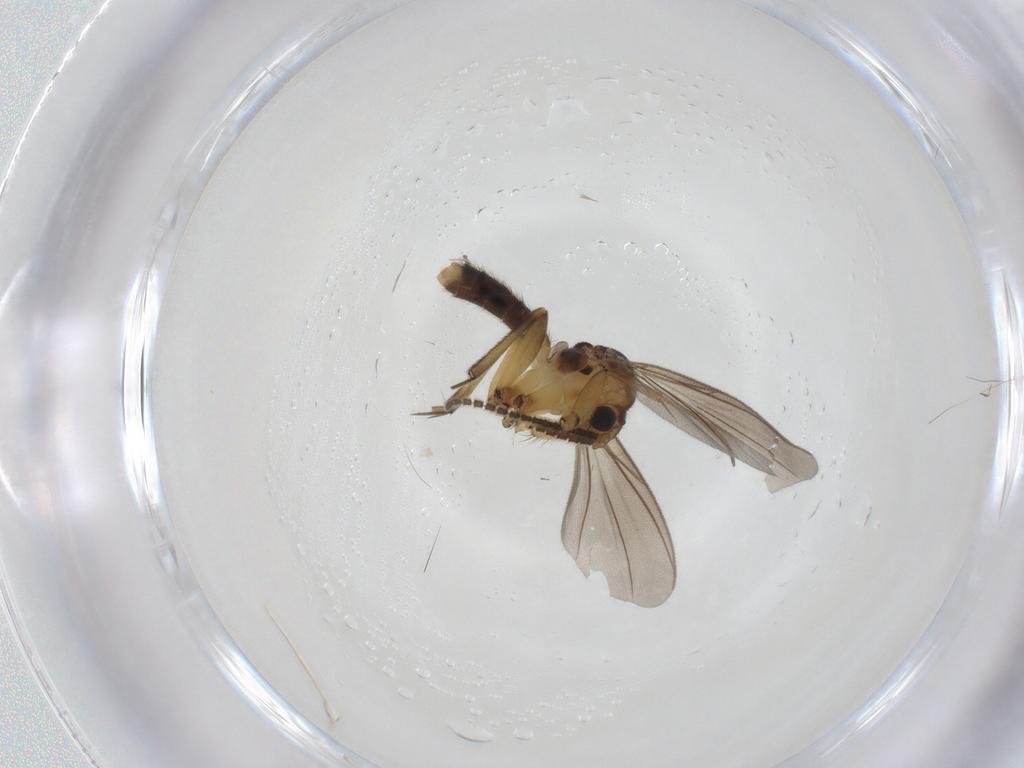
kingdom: Animalia
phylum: Arthropoda
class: Insecta
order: Diptera
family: Mycetophilidae
